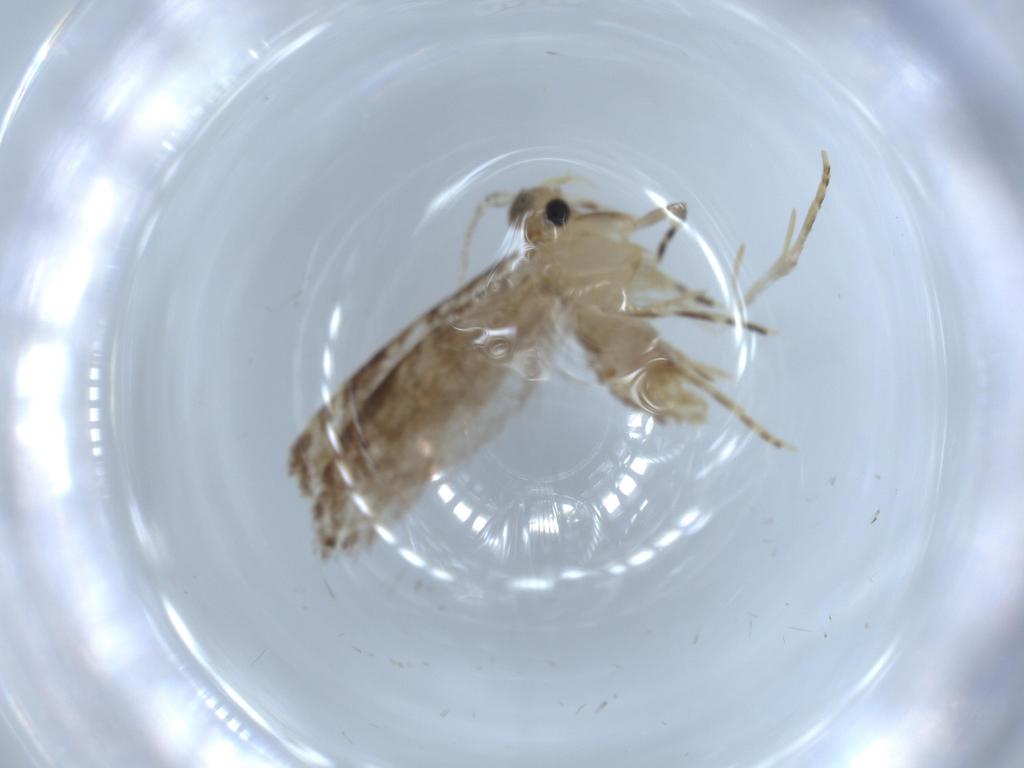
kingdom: Animalia
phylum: Arthropoda
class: Insecta
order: Lepidoptera
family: Tineidae
